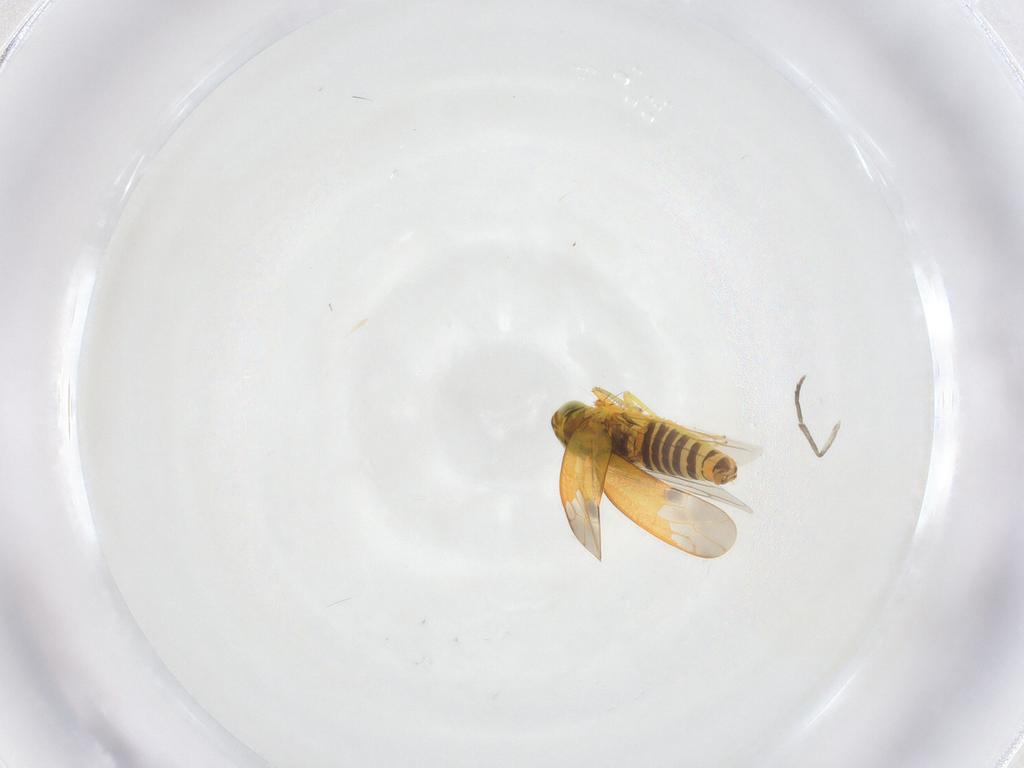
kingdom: Animalia
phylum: Arthropoda
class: Insecta
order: Hemiptera
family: Cicadellidae
